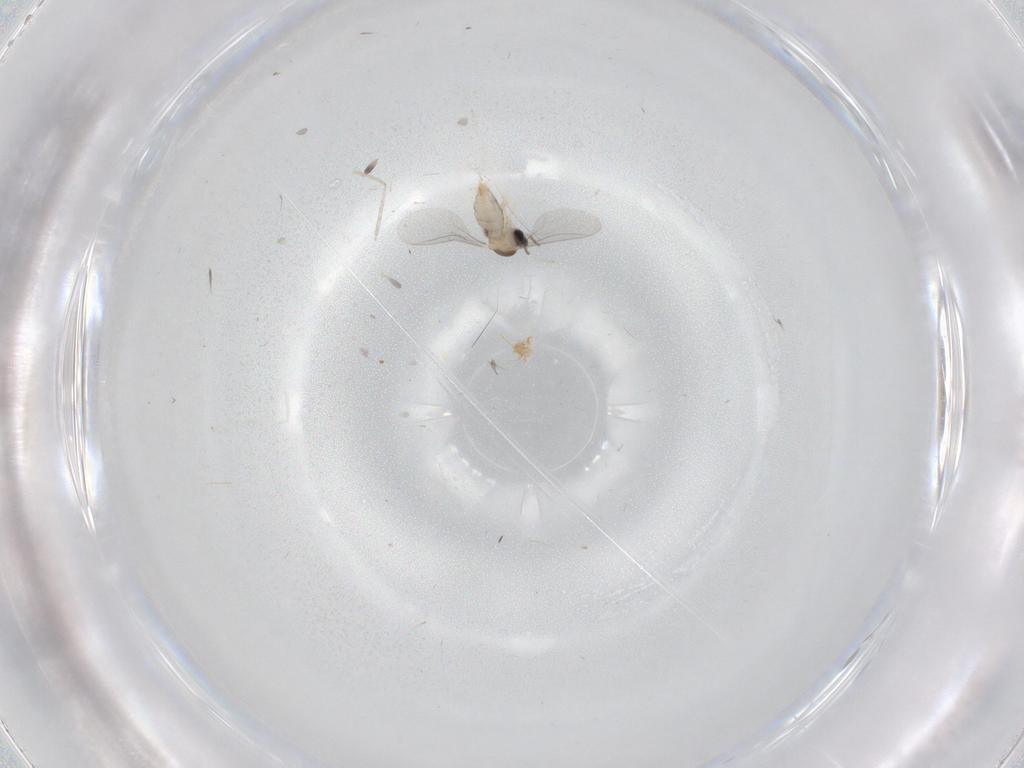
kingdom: Animalia
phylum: Arthropoda
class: Insecta
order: Diptera
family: Cecidomyiidae
